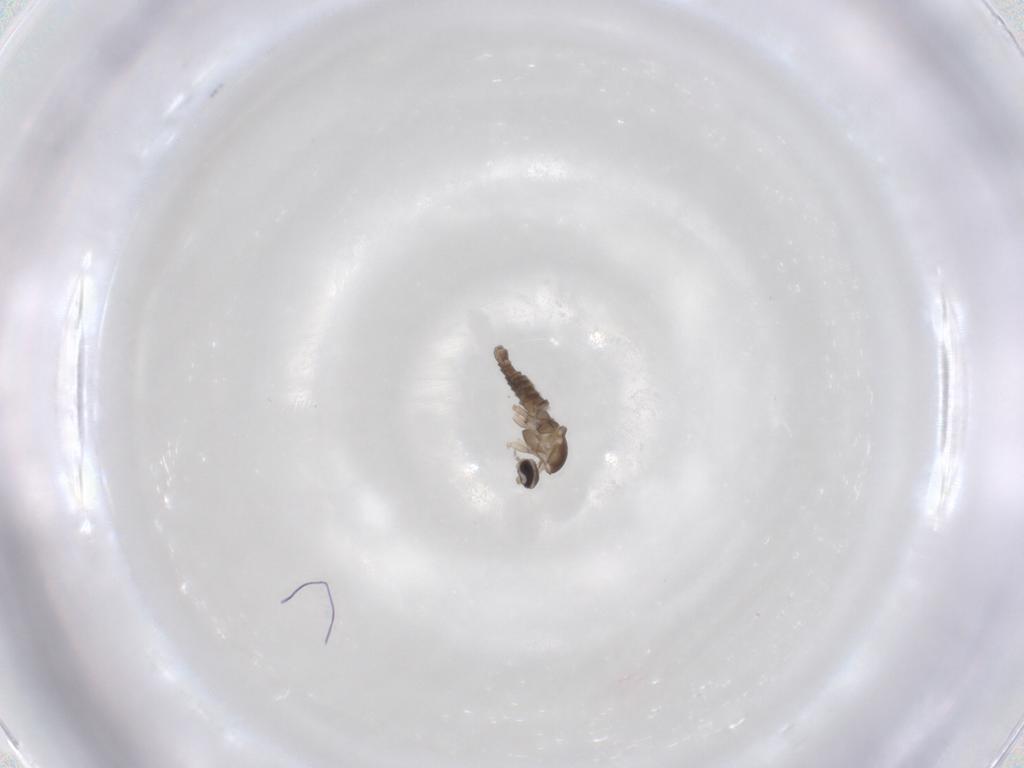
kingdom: Animalia
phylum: Arthropoda
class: Insecta
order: Diptera
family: Cecidomyiidae
